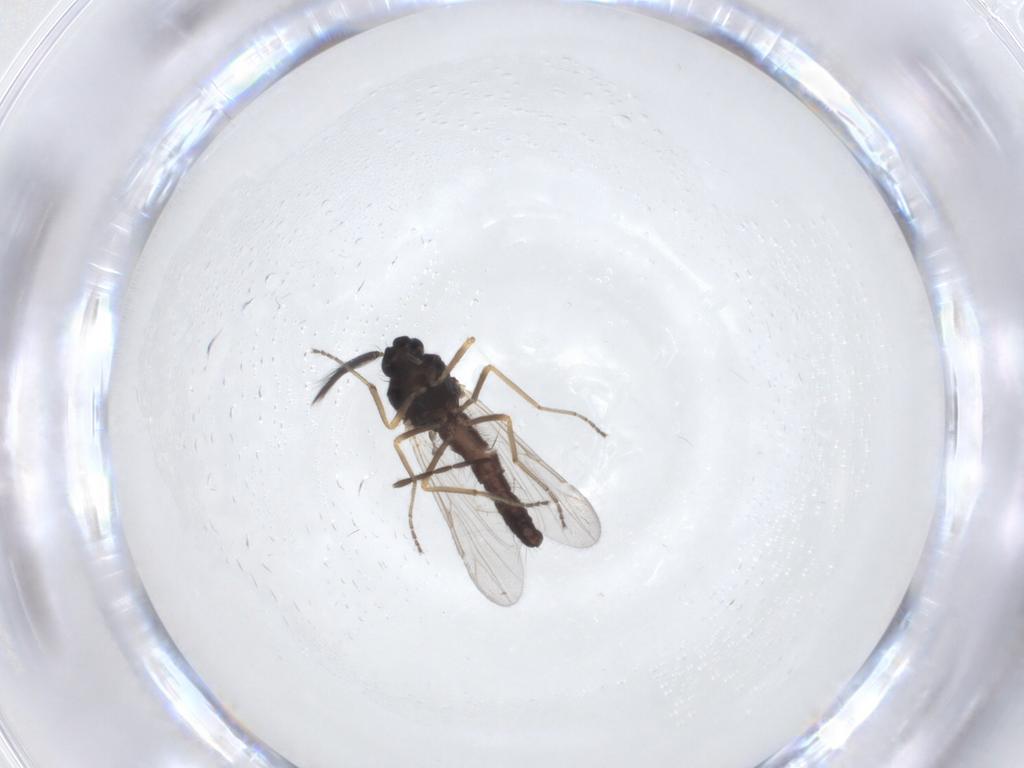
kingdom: Animalia
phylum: Arthropoda
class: Insecta
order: Diptera
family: Ceratopogonidae
